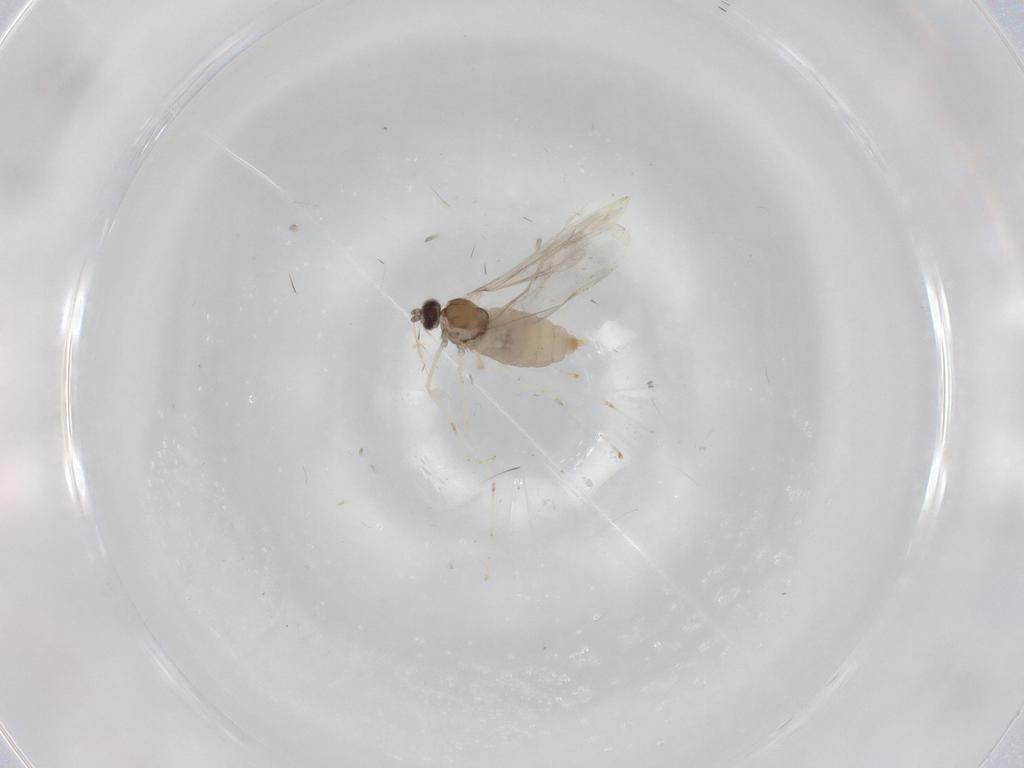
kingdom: Animalia
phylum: Arthropoda
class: Insecta
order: Diptera
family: Cecidomyiidae
